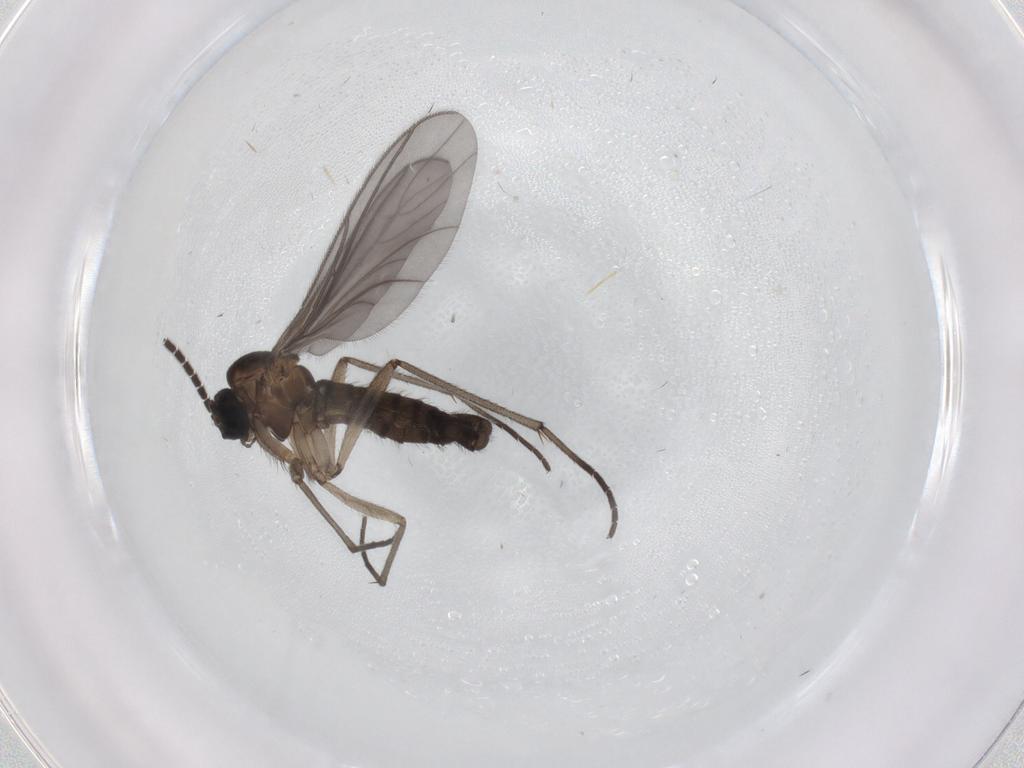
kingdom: Animalia
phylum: Arthropoda
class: Insecta
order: Diptera
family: Sciaridae
